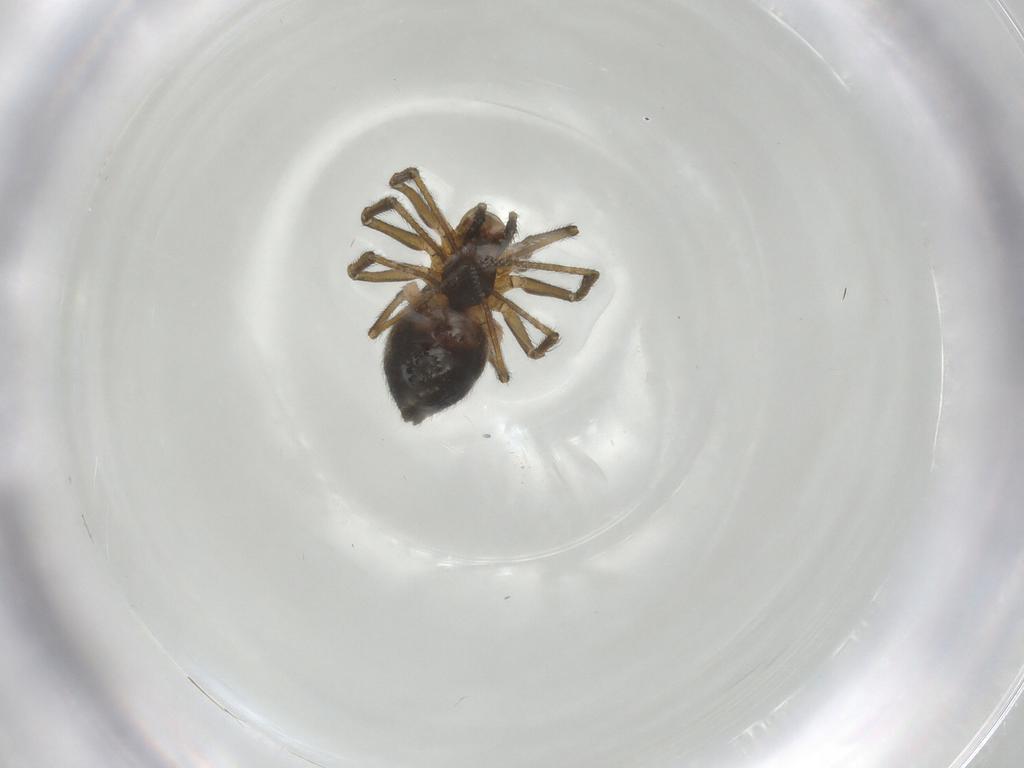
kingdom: Animalia
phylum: Arthropoda
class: Arachnida
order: Araneae
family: Linyphiidae
